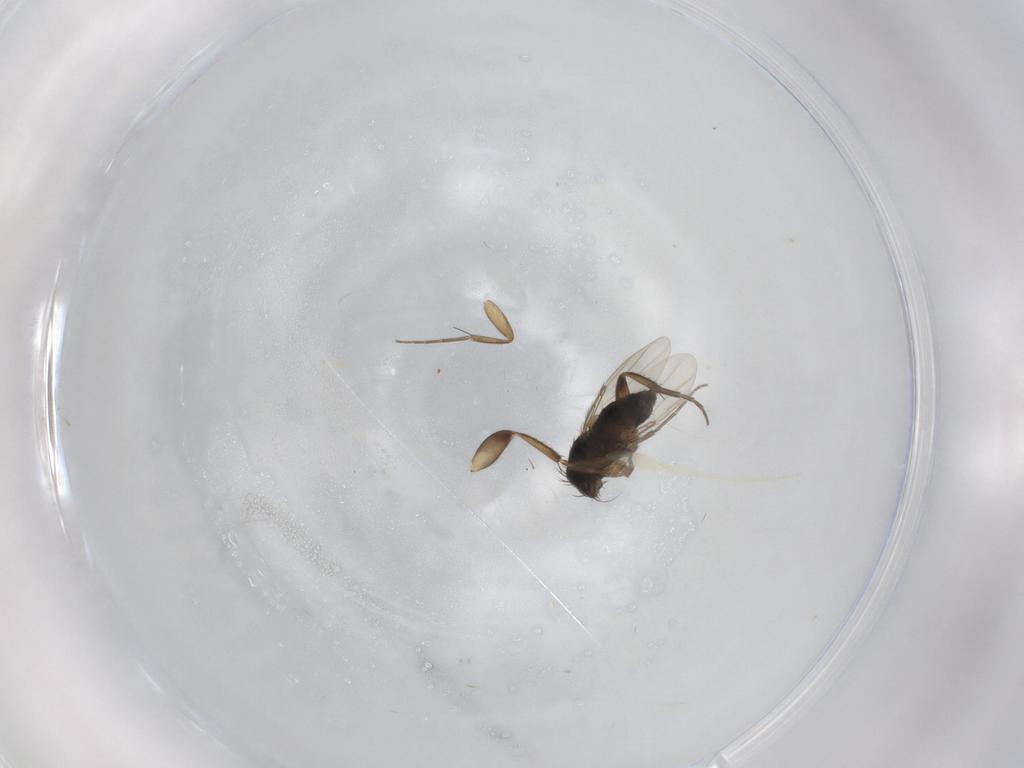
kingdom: Animalia
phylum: Arthropoda
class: Insecta
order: Diptera
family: Phoridae
